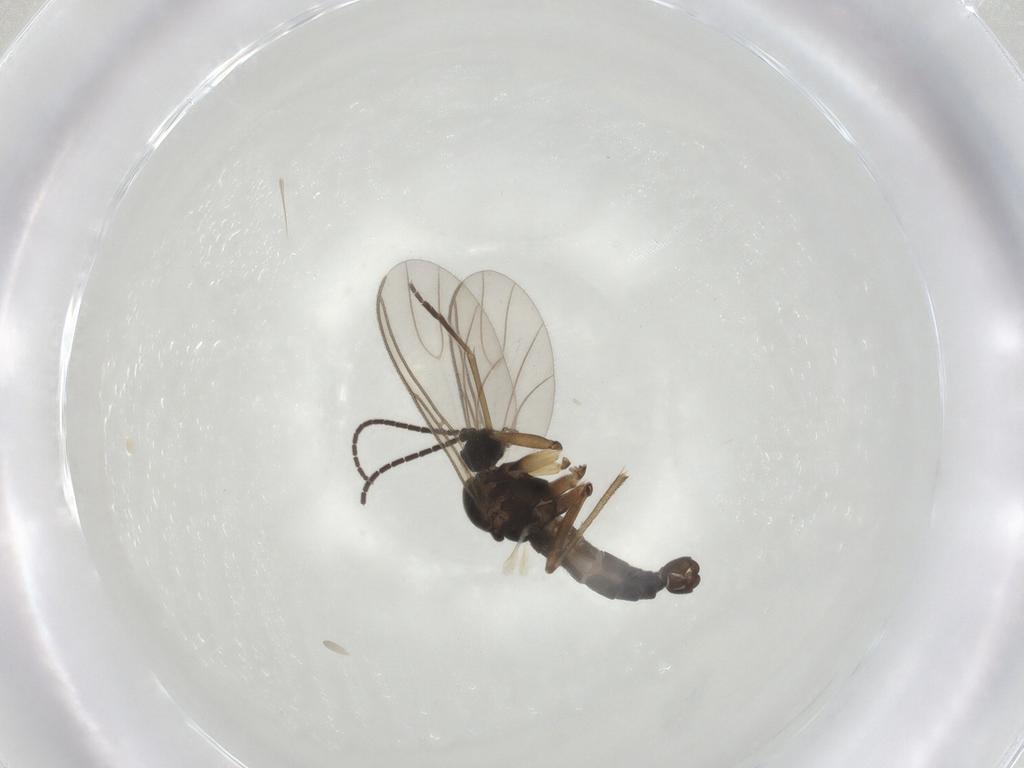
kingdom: Animalia
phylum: Arthropoda
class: Insecta
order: Diptera
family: Sciaridae
